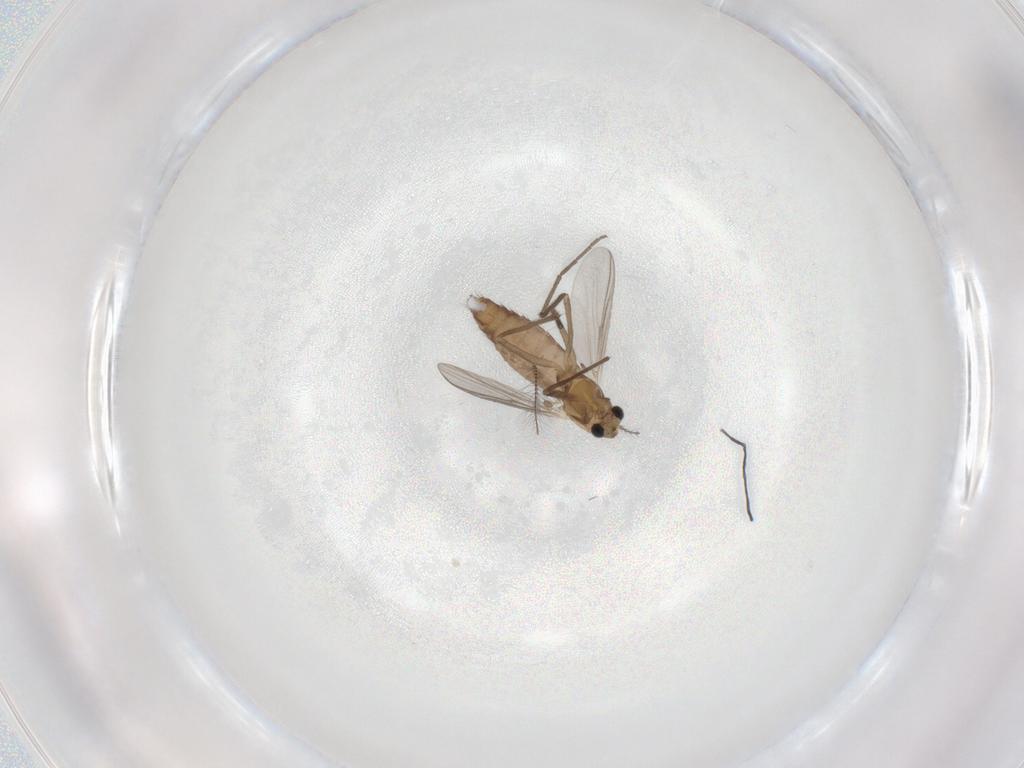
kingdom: Animalia
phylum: Arthropoda
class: Insecta
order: Diptera
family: Chironomidae
